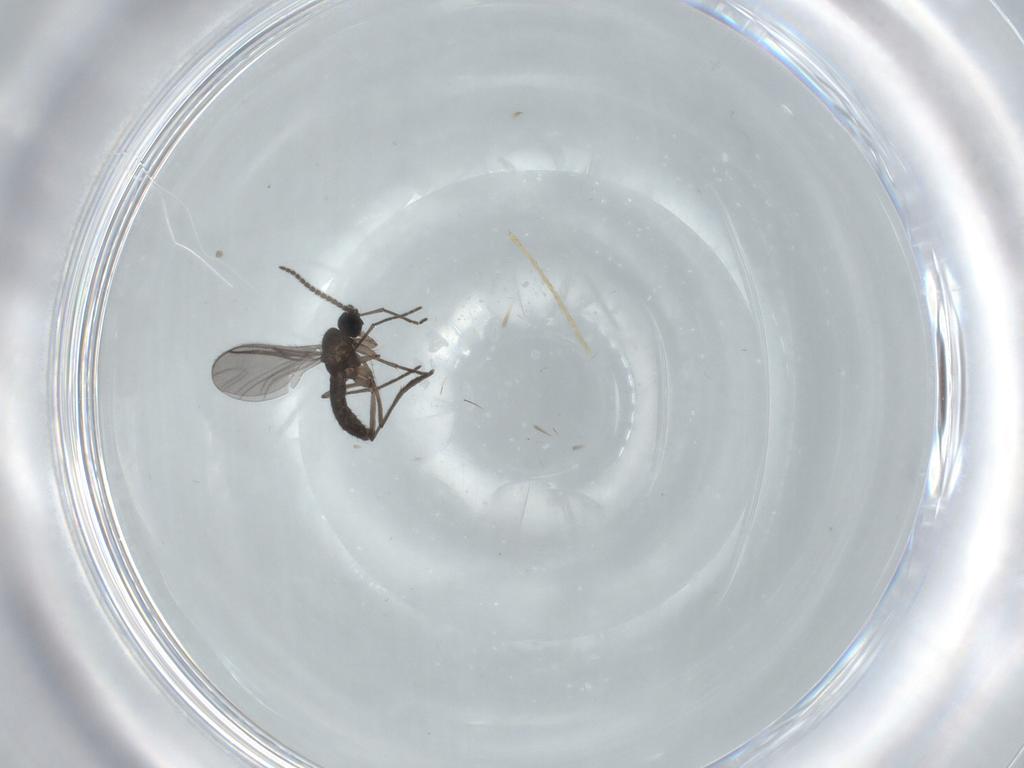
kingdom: Animalia
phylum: Arthropoda
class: Insecta
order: Diptera
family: Sciaridae
